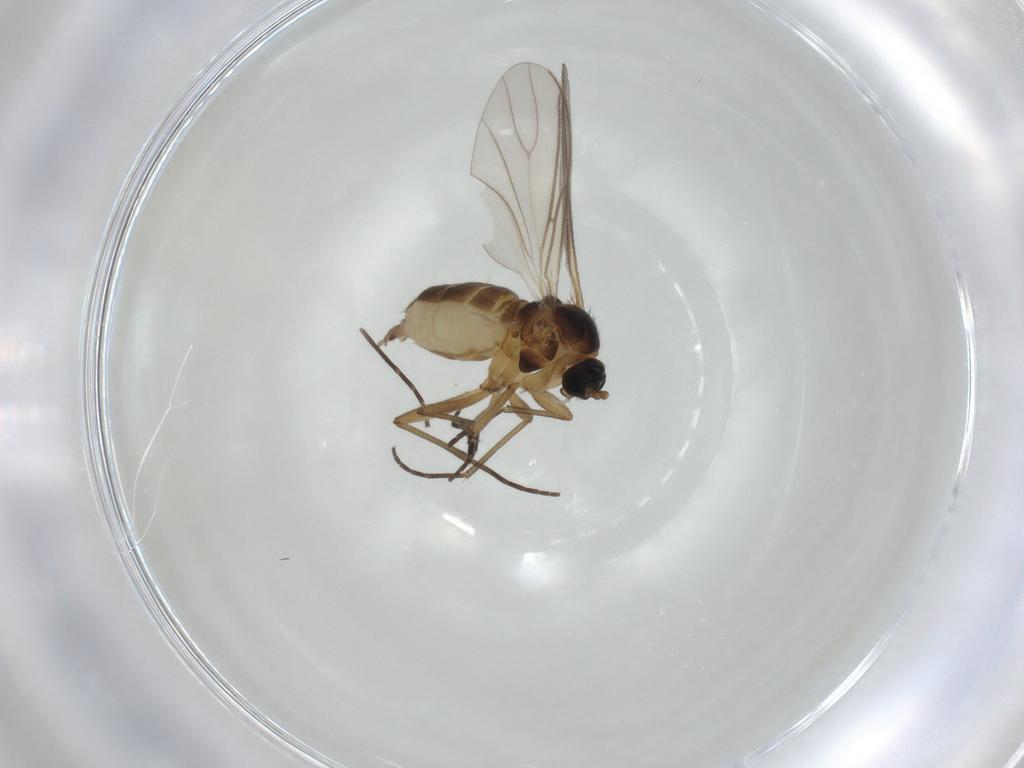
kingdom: Animalia
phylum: Arthropoda
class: Insecta
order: Diptera
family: Sciaridae
